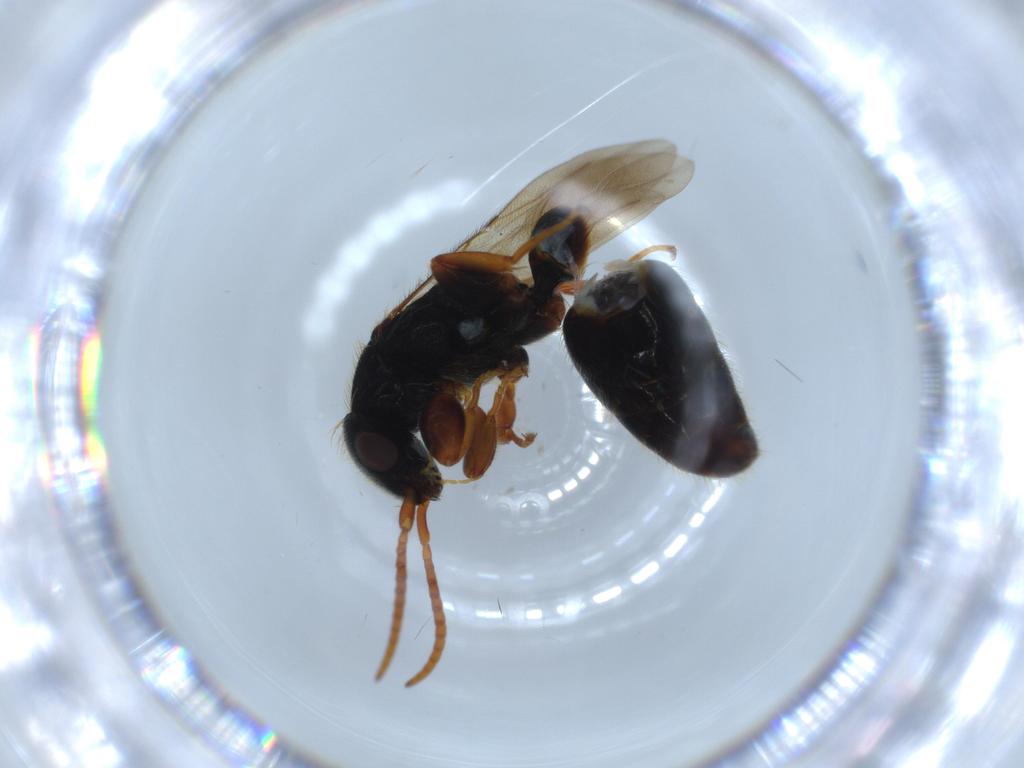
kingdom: Animalia
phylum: Arthropoda
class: Insecta
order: Hymenoptera
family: Bethylidae
